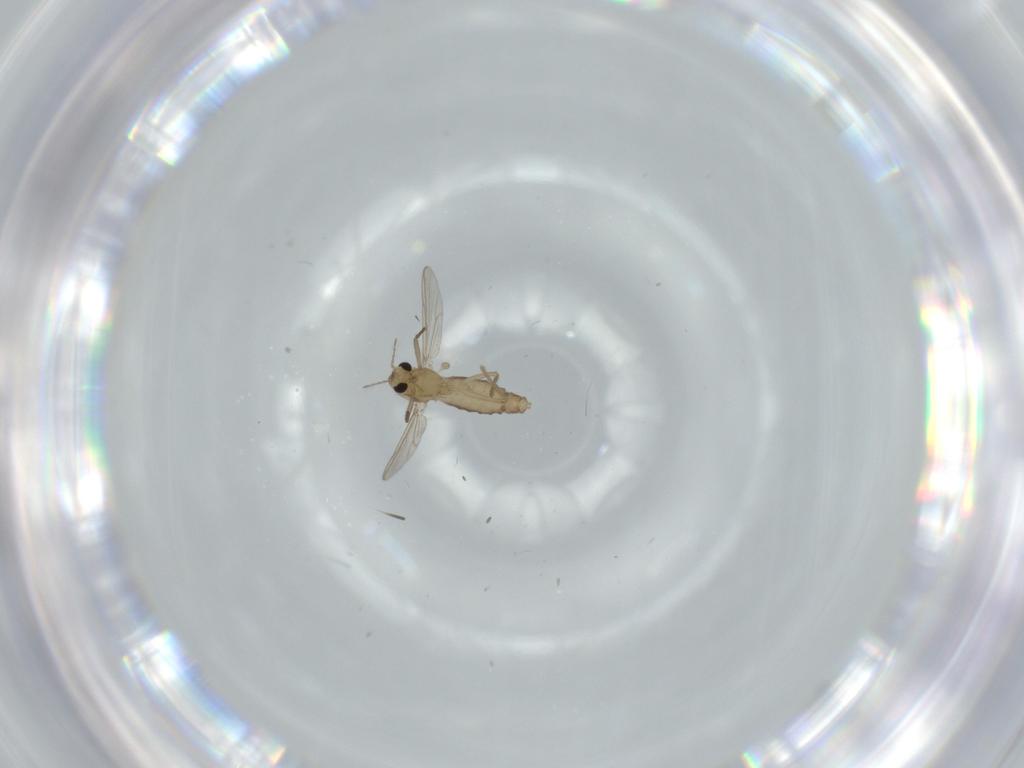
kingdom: Animalia
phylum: Arthropoda
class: Insecta
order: Diptera
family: Chironomidae
